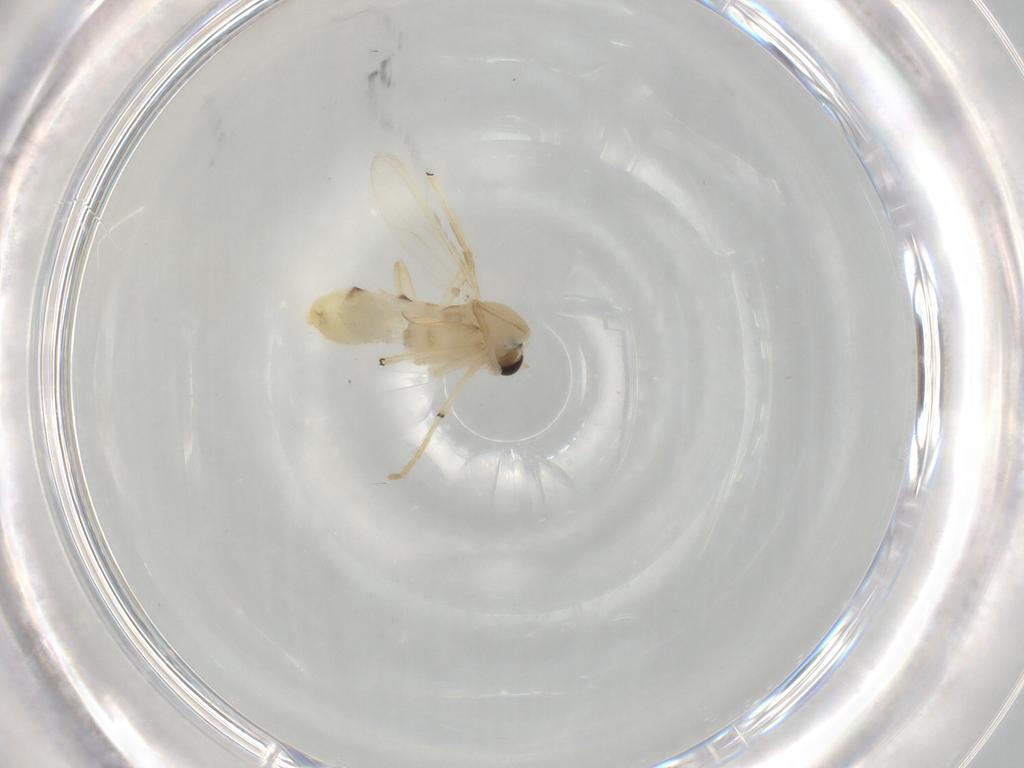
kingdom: Animalia
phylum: Arthropoda
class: Insecta
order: Diptera
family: Chironomidae
